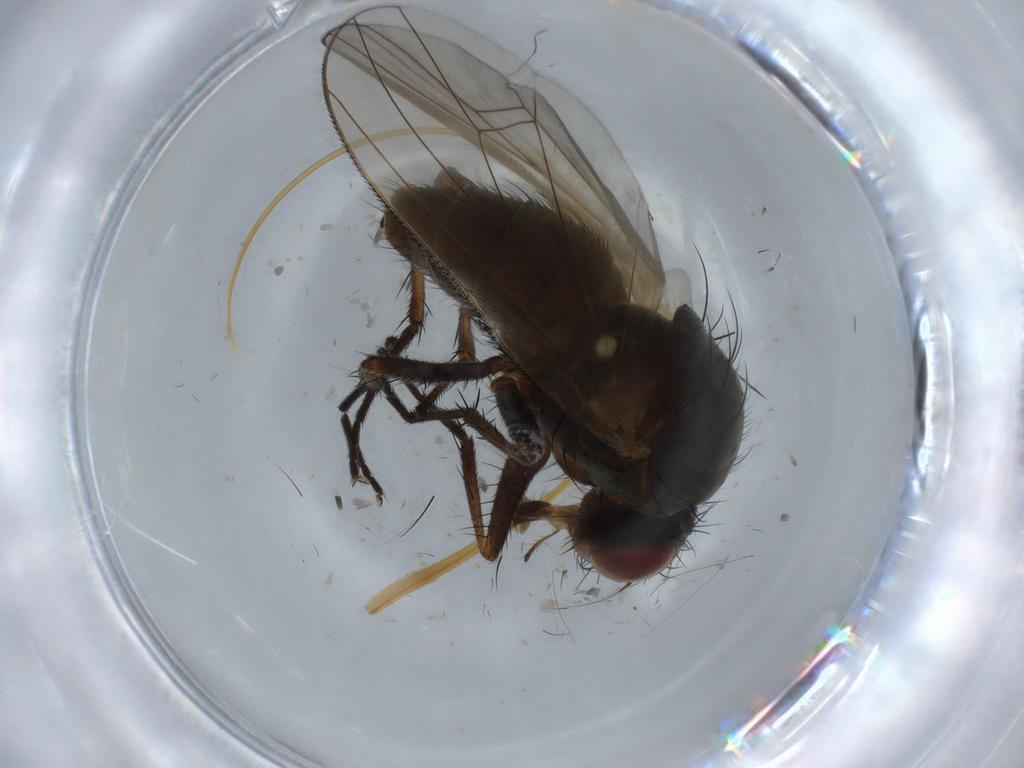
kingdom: Animalia
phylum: Arthropoda
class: Insecta
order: Diptera
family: Anthomyiidae
